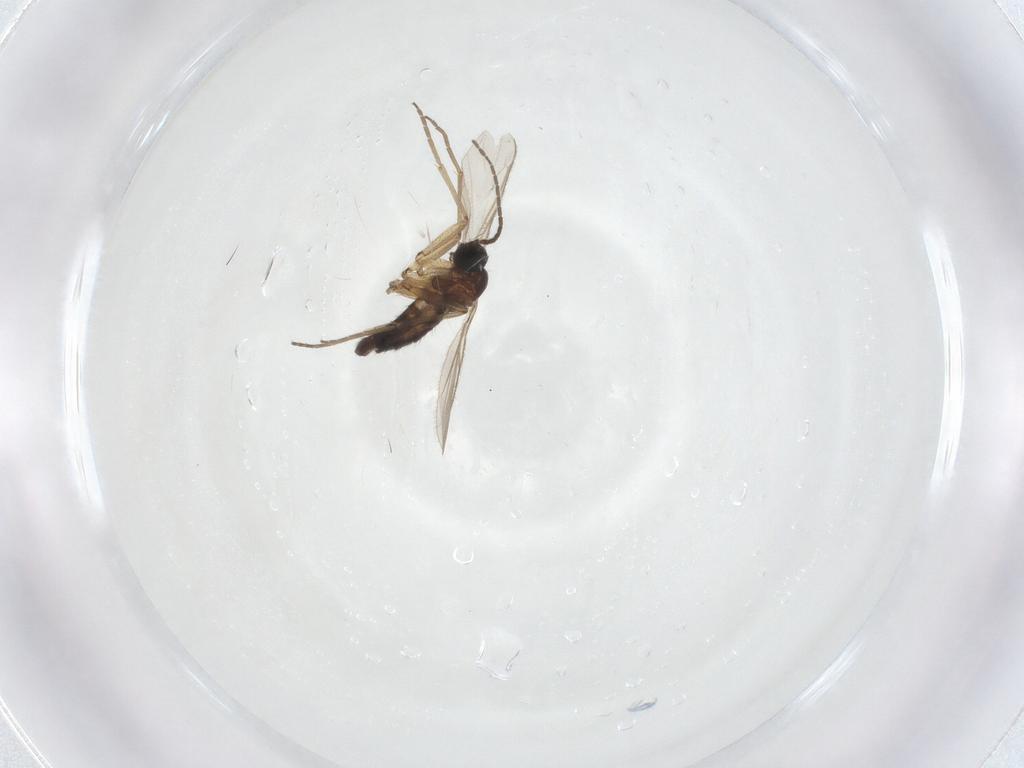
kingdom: Animalia
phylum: Arthropoda
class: Insecta
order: Diptera
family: Sciaridae
